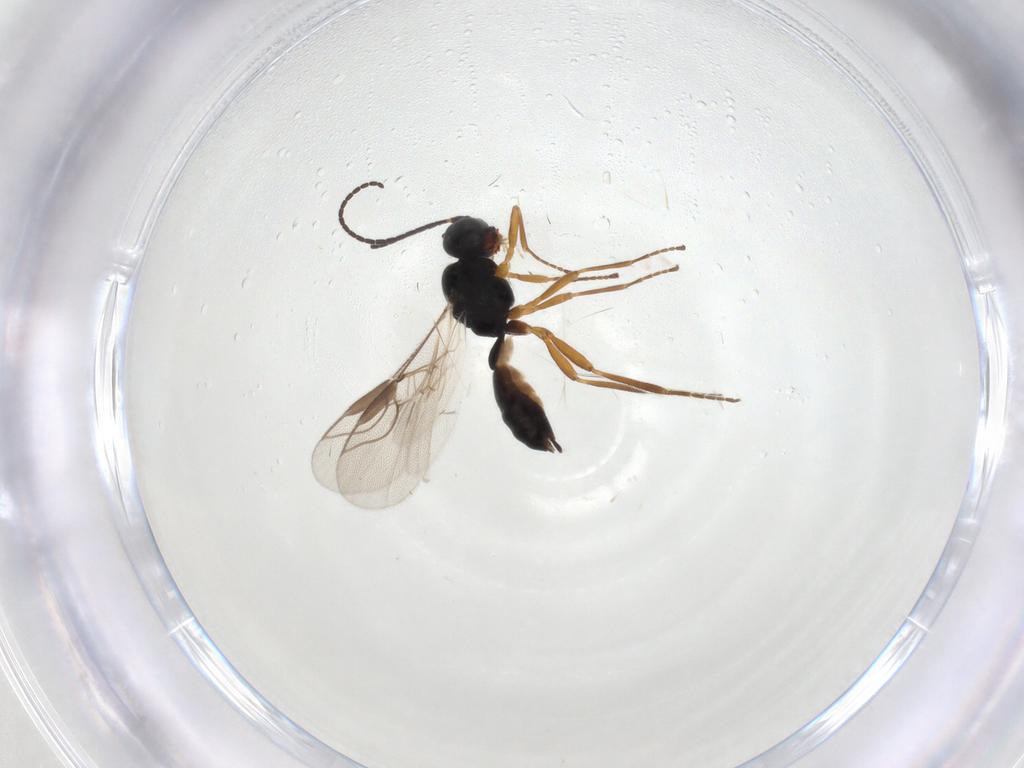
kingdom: Animalia
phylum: Arthropoda
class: Insecta
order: Hymenoptera
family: Braconidae
